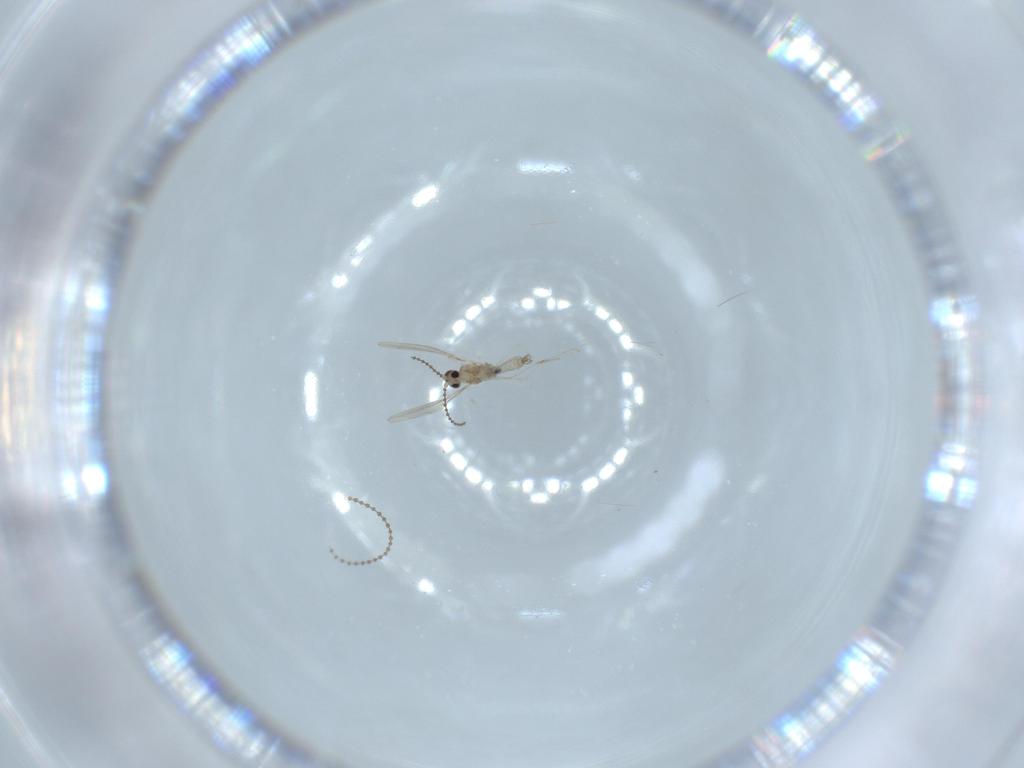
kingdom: Animalia
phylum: Arthropoda
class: Insecta
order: Diptera
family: Cecidomyiidae
